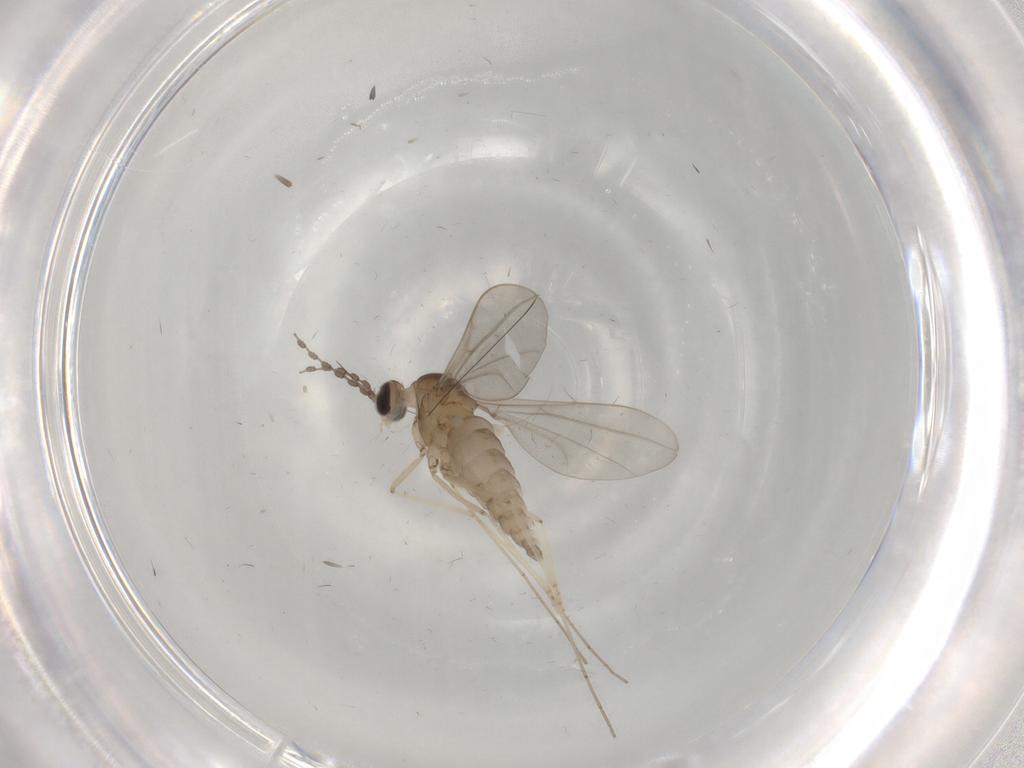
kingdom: Animalia
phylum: Arthropoda
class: Insecta
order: Diptera
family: Cecidomyiidae
